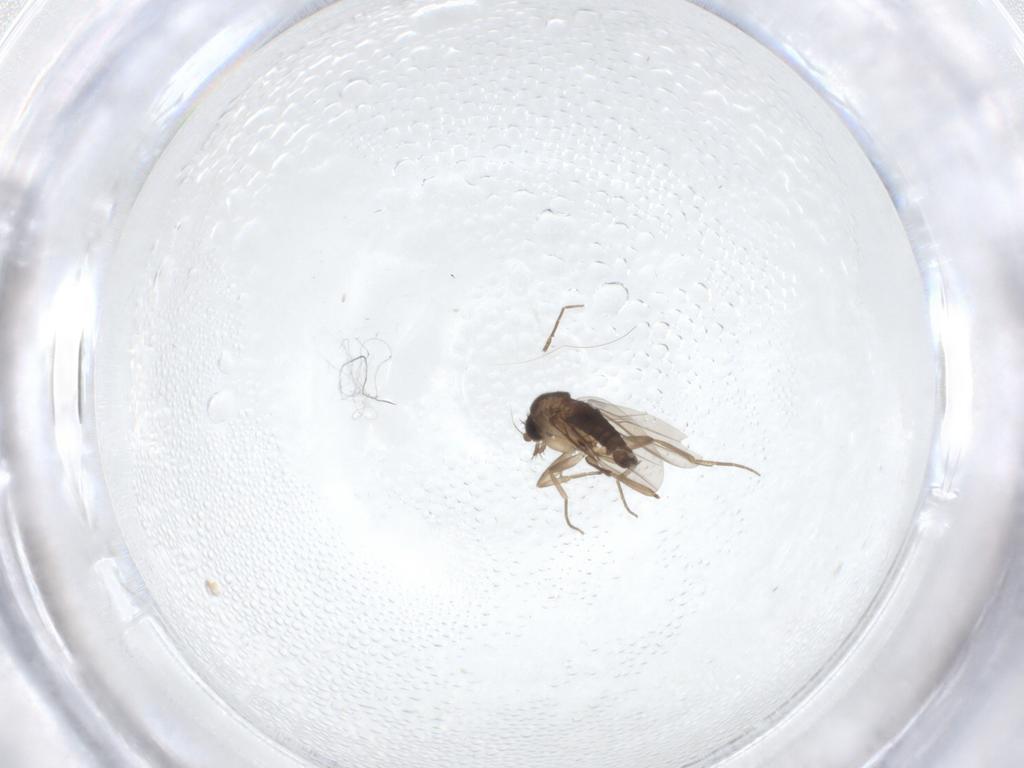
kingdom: Animalia
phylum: Arthropoda
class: Insecta
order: Diptera
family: Phoridae
